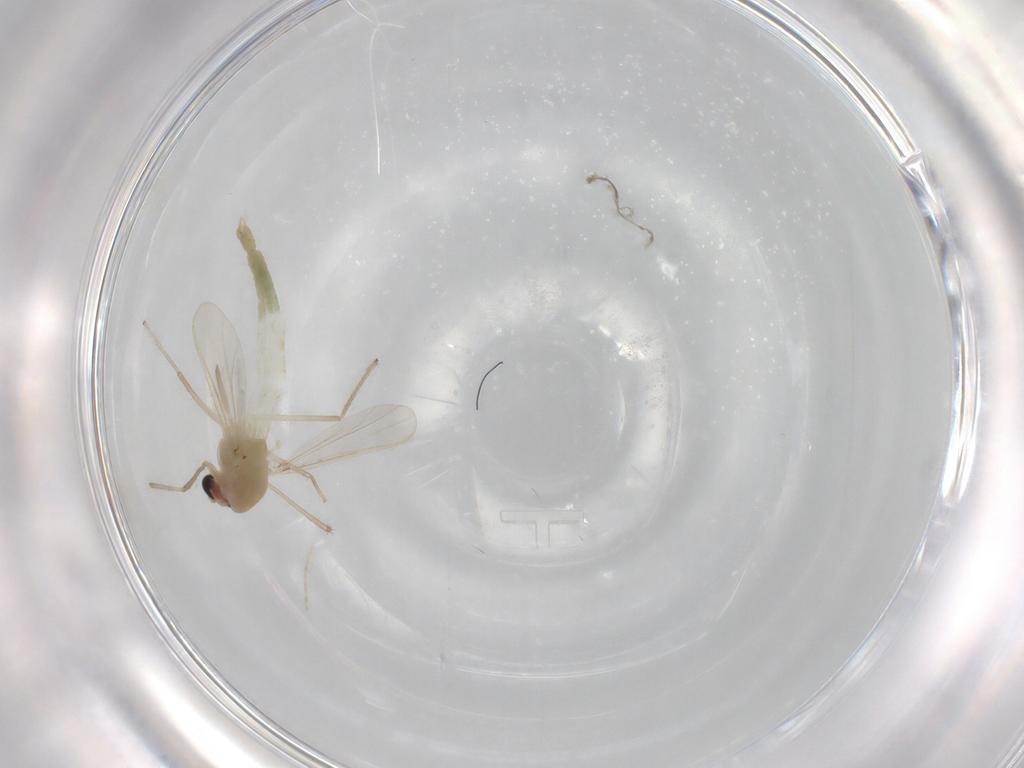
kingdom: Animalia
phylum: Arthropoda
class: Insecta
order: Diptera
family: Chironomidae
